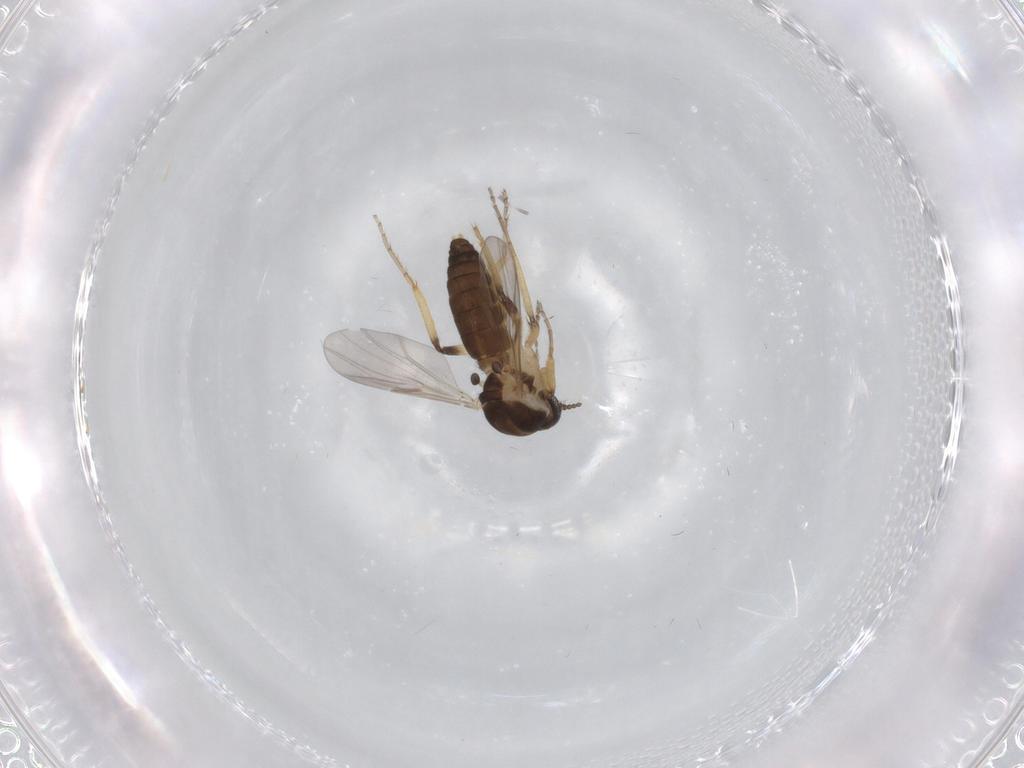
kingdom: Animalia
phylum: Arthropoda
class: Insecta
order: Diptera
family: Ceratopogonidae
